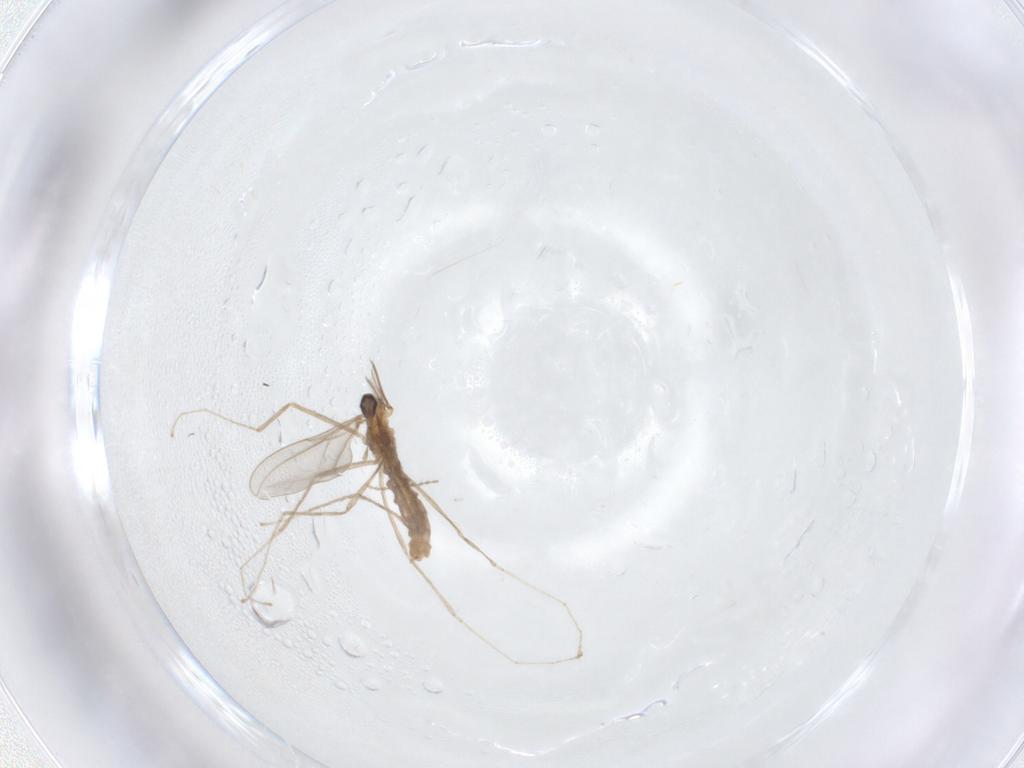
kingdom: Animalia
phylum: Arthropoda
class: Insecta
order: Diptera
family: Cecidomyiidae
